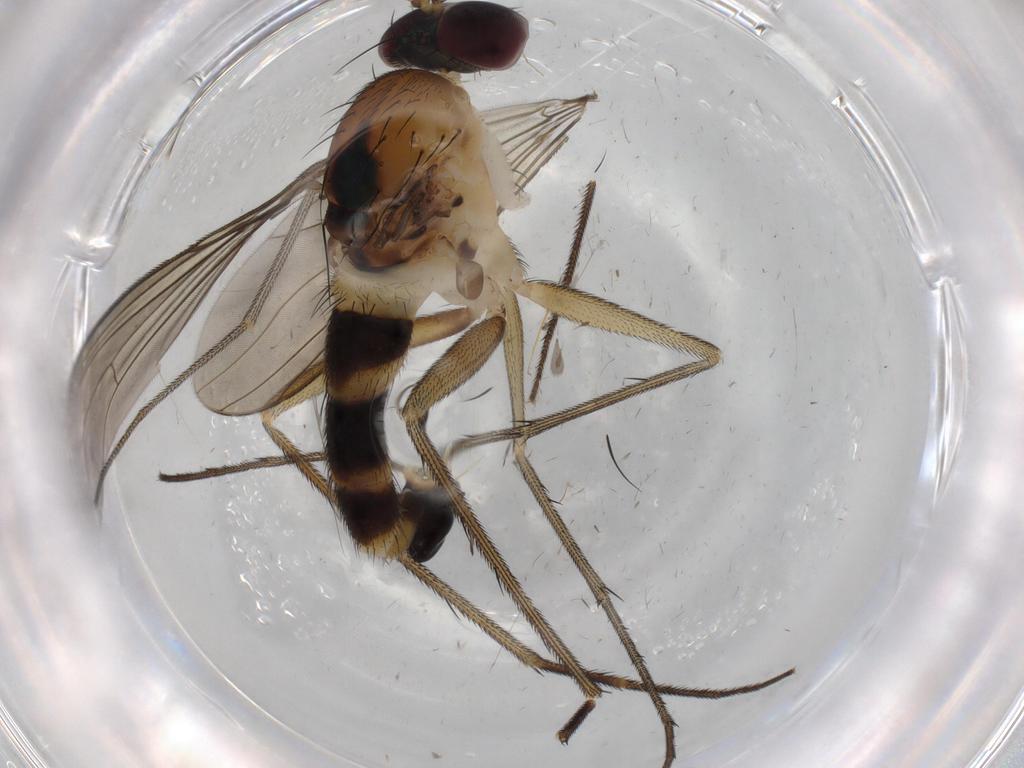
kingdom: Animalia
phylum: Arthropoda
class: Insecta
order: Diptera
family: Dolichopodidae
